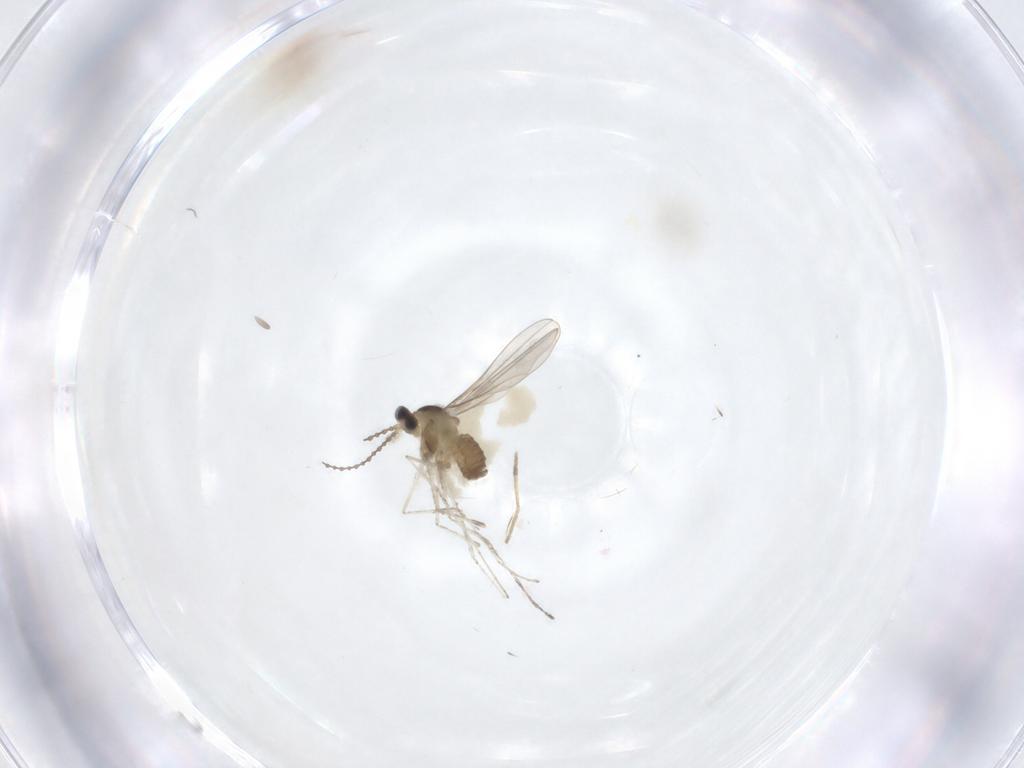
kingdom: Animalia
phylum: Arthropoda
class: Insecta
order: Diptera
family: Cecidomyiidae
